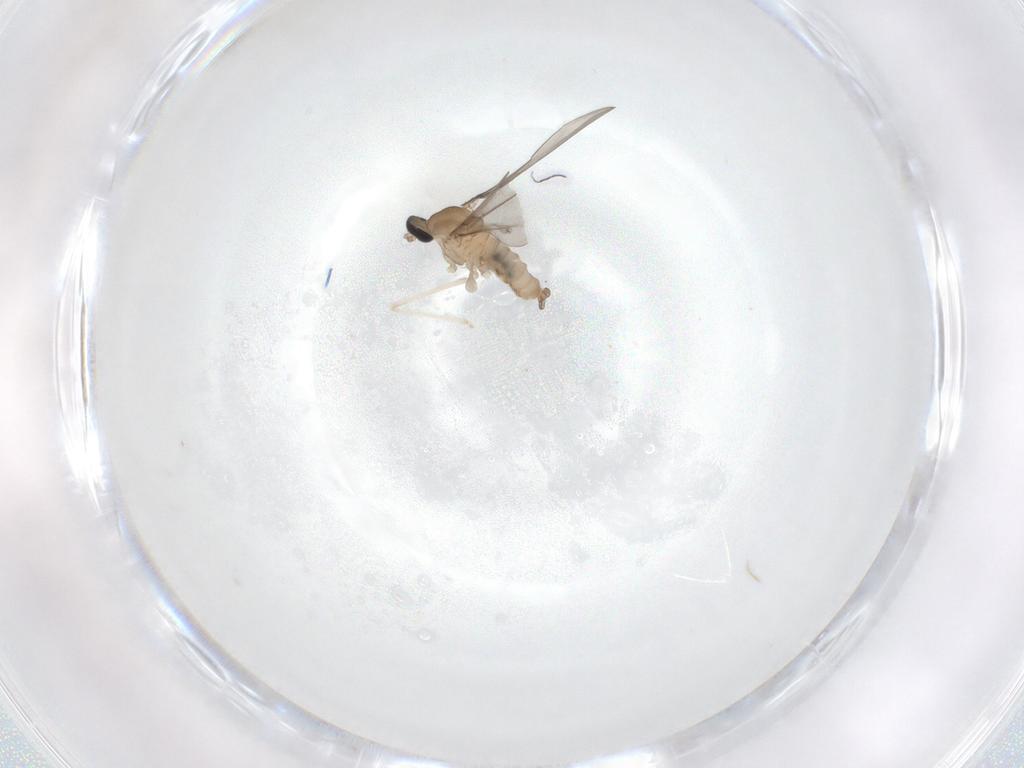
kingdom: Animalia
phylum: Arthropoda
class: Insecta
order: Diptera
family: Cecidomyiidae
